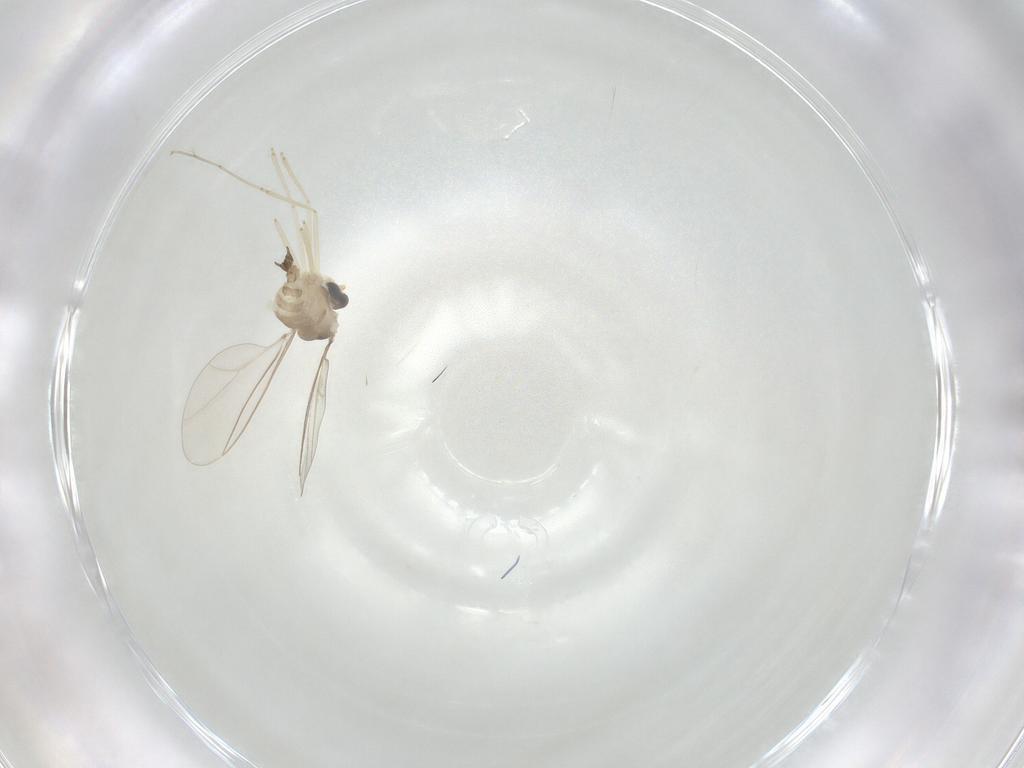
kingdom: Animalia
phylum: Arthropoda
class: Insecta
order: Diptera
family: Cecidomyiidae
